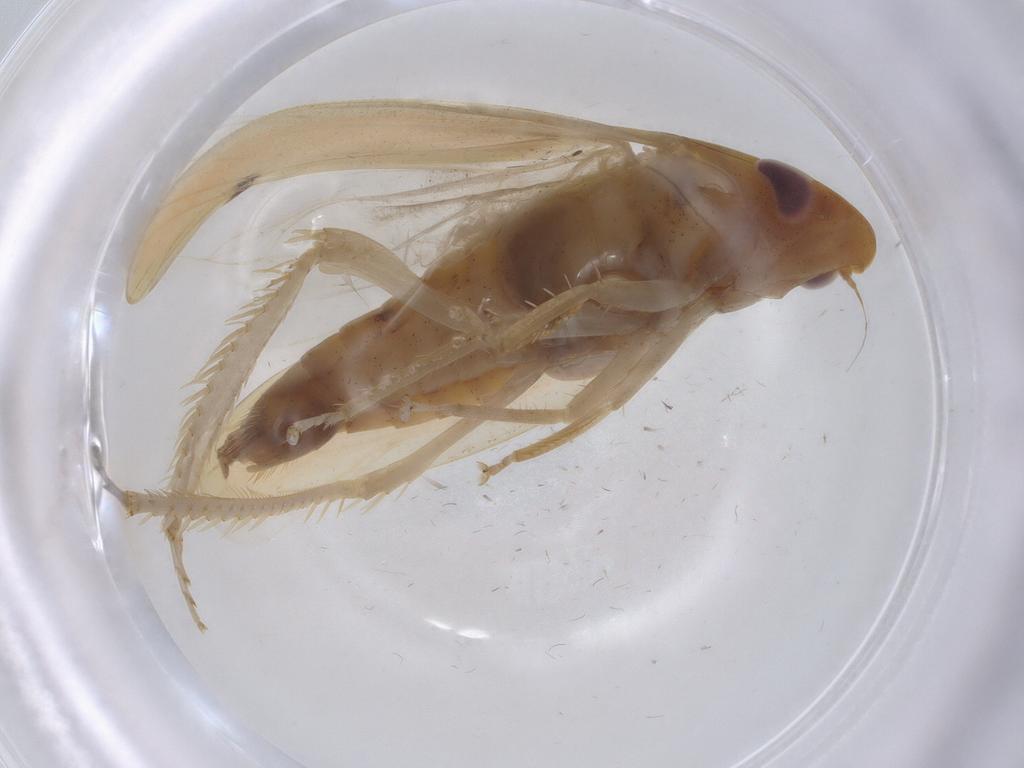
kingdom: Animalia
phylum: Arthropoda
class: Insecta
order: Hemiptera
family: Cicadellidae
